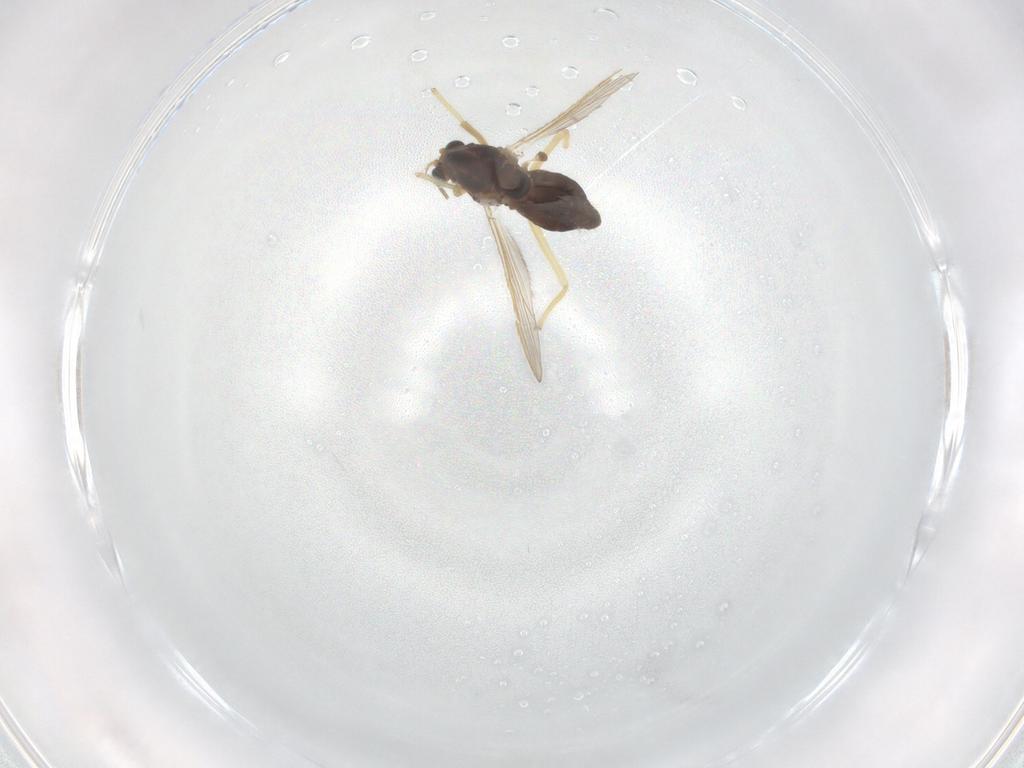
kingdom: Animalia
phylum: Arthropoda
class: Insecta
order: Diptera
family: Chironomidae
